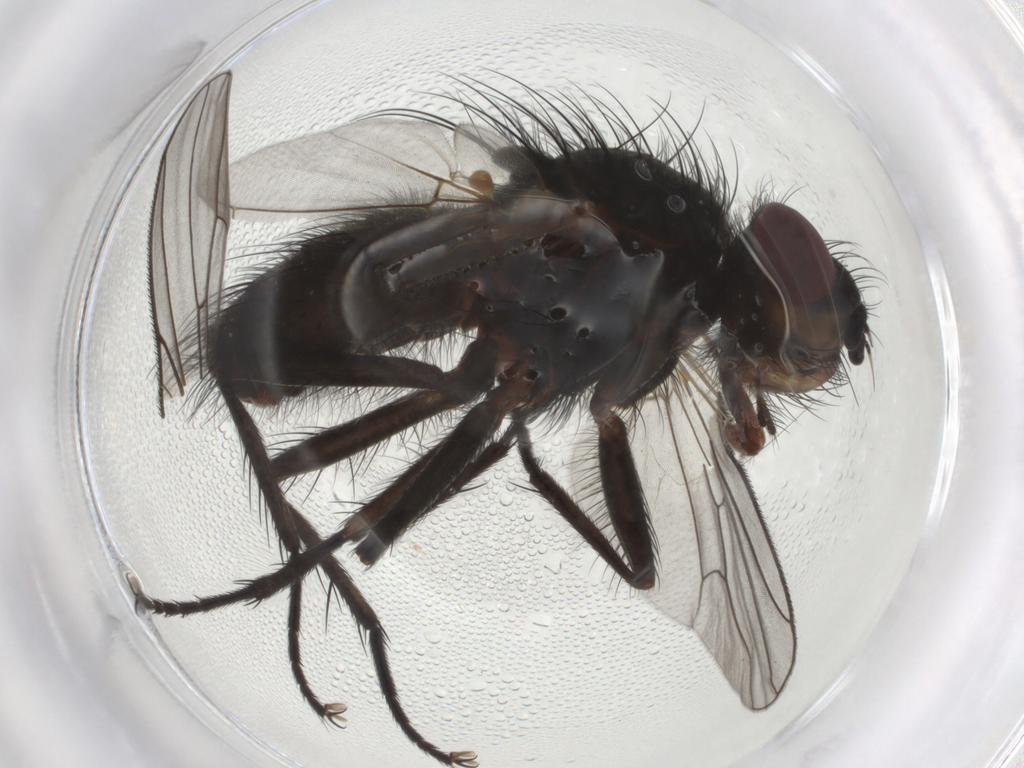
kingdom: Animalia
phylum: Arthropoda
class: Insecta
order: Diptera
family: Anthomyiidae
